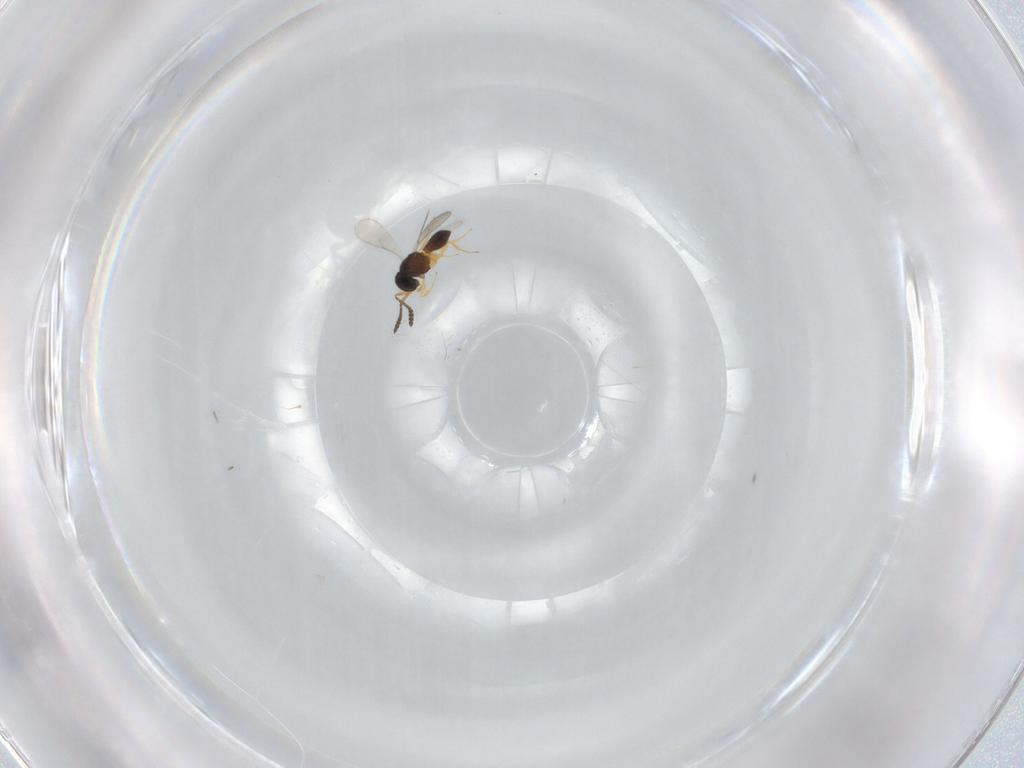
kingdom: Animalia
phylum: Arthropoda
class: Insecta
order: Hymenoptera
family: Scelionidae
